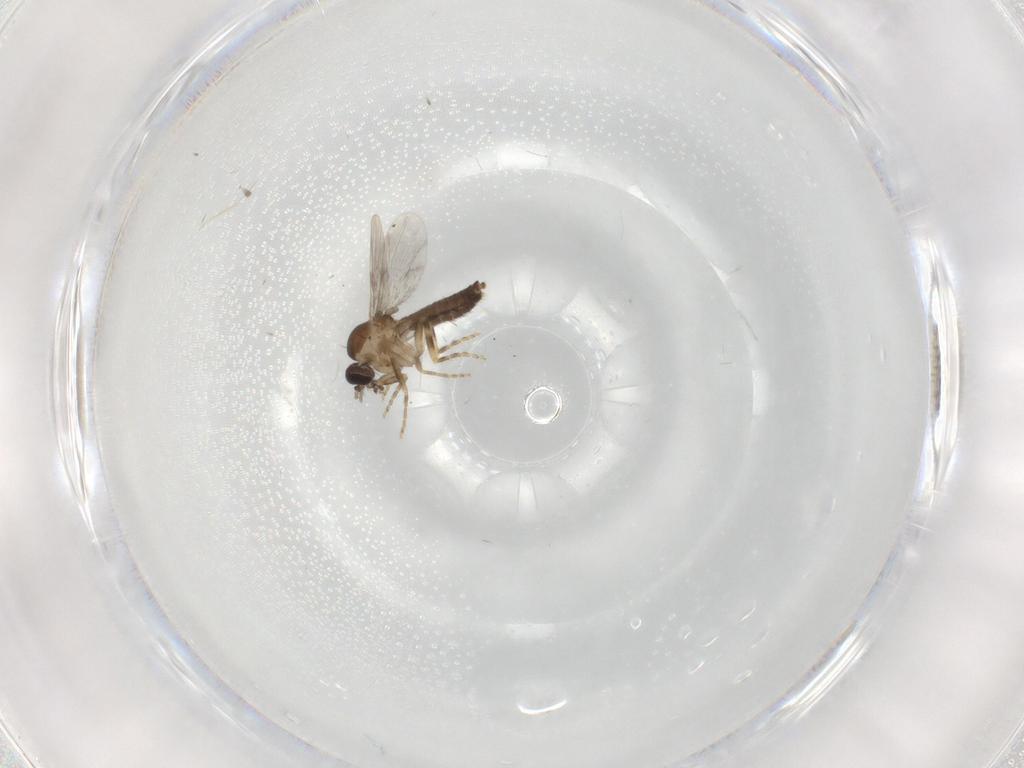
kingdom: Animalia
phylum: Arthropoda
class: Insecta
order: Diptera
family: Ceratopogonidae
